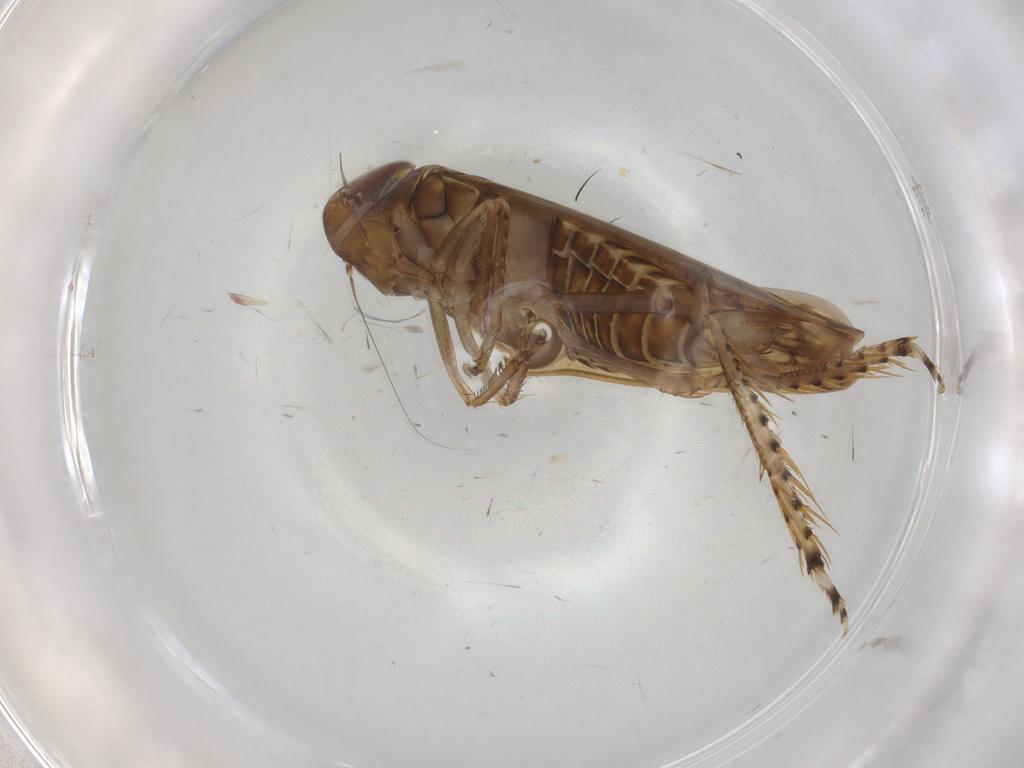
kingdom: Animalia
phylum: Arthropoda
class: Insecta
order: Hemiptera
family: Cicadellidae
